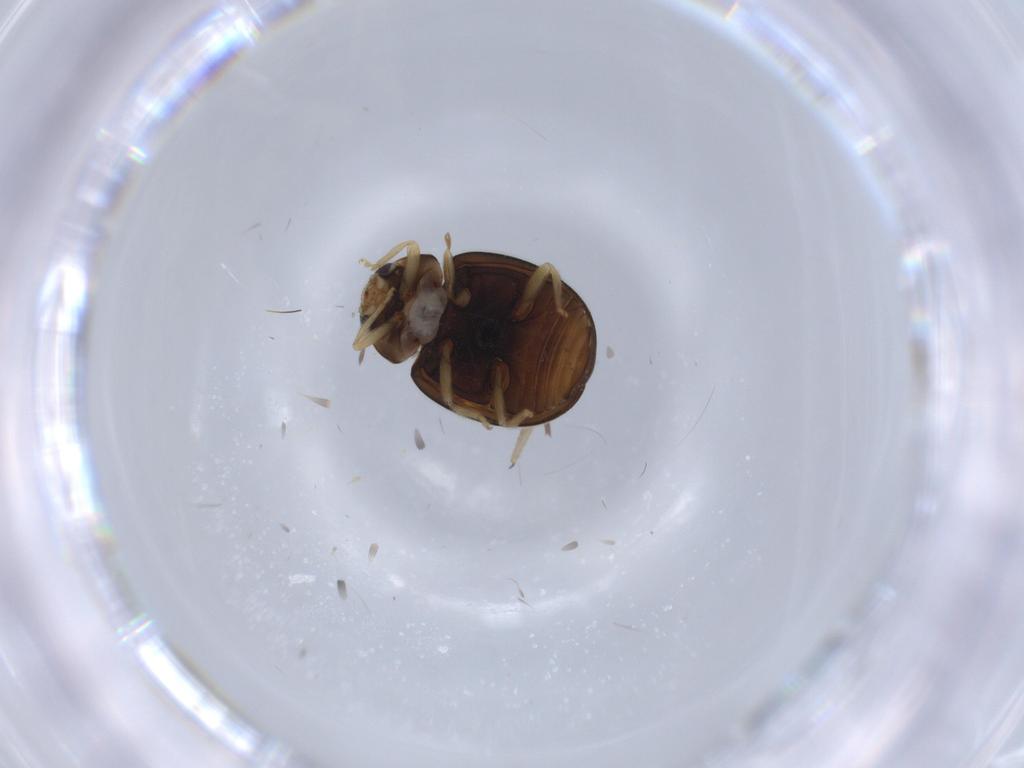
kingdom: Animalia
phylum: Arthropoda
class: Insecta
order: Coleoptera
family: Coccinellidae
